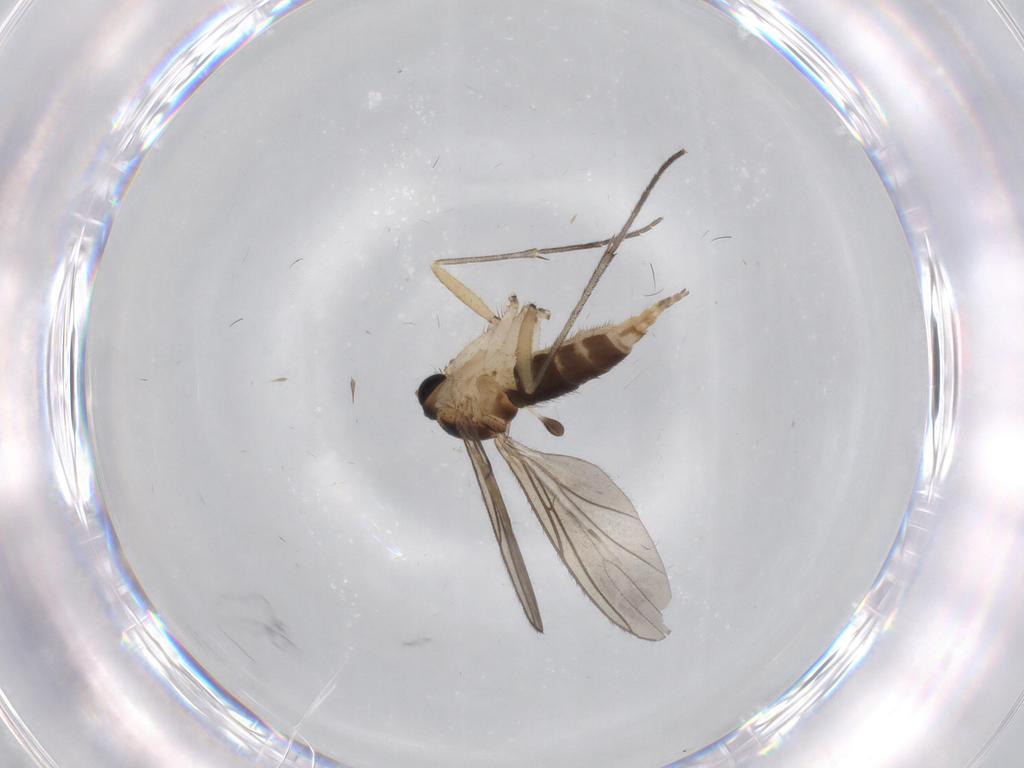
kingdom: Animalia
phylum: Arthropoda
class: Insecta
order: Diptera
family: Sciaridae
